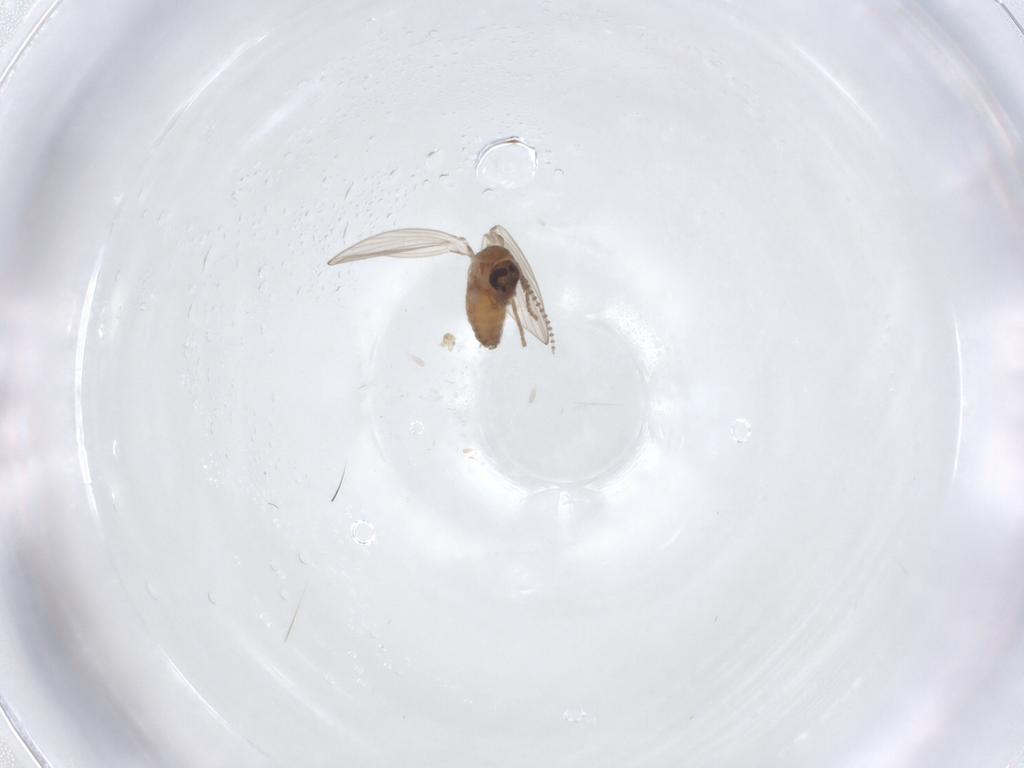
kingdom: Animalia
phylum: Arthropoda
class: Insecta
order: Diptera
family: Psychodidae
